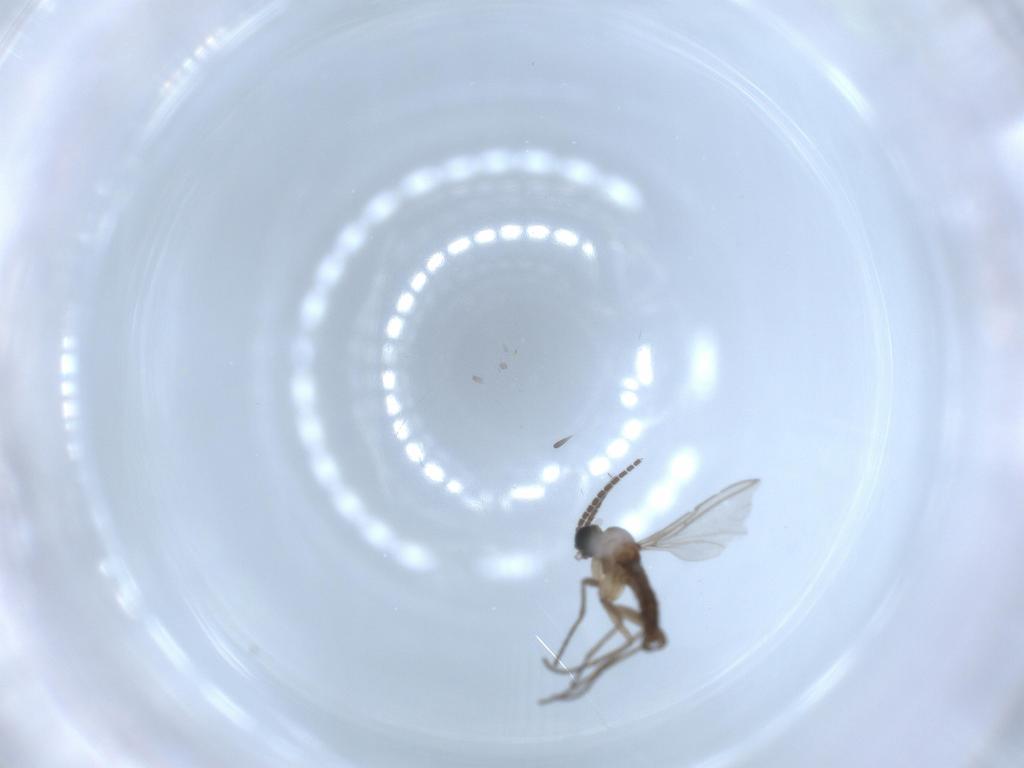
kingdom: Animalia
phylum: Arthropoda
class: Insecta
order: Diptera
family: Sciaridae
